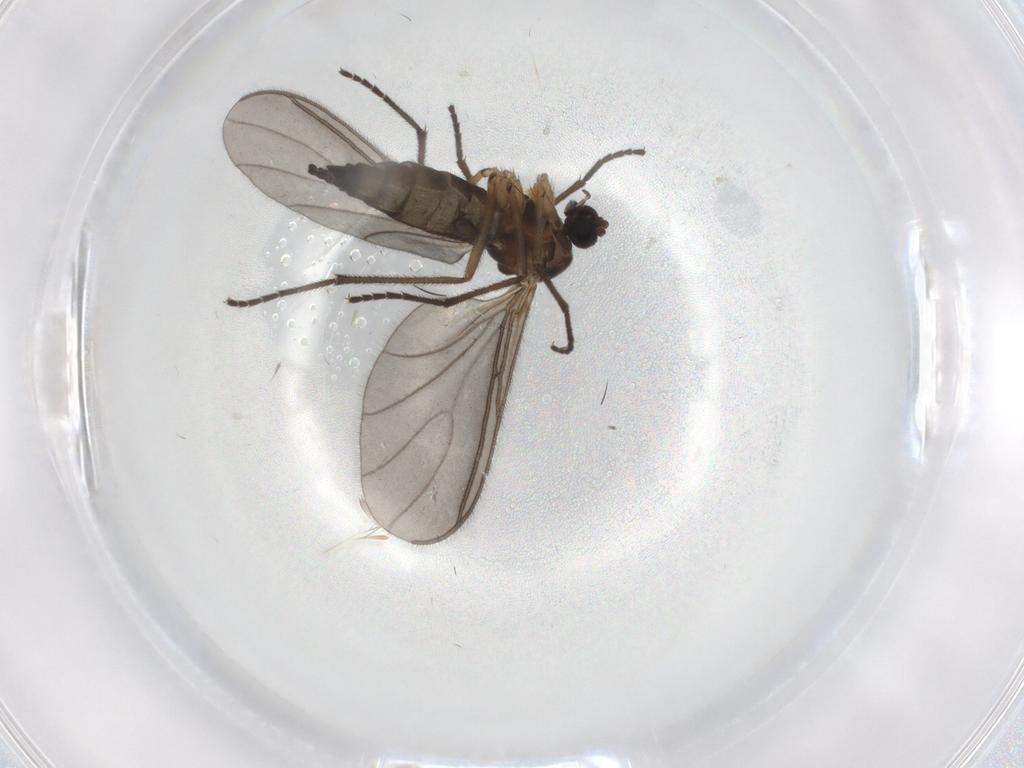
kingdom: Animalia
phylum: Arthropoda
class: Insecta
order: Diptera
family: Sciaridae
